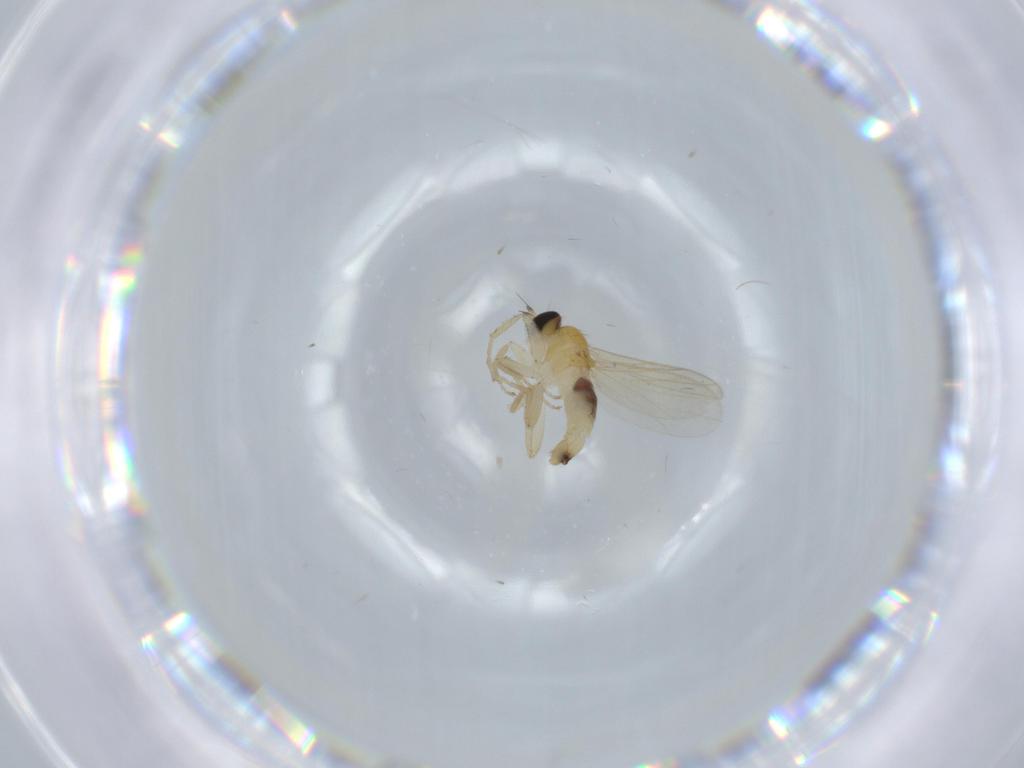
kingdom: Animalia
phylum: Arthropoda
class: Insecta
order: Diptera
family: Hybotidae
